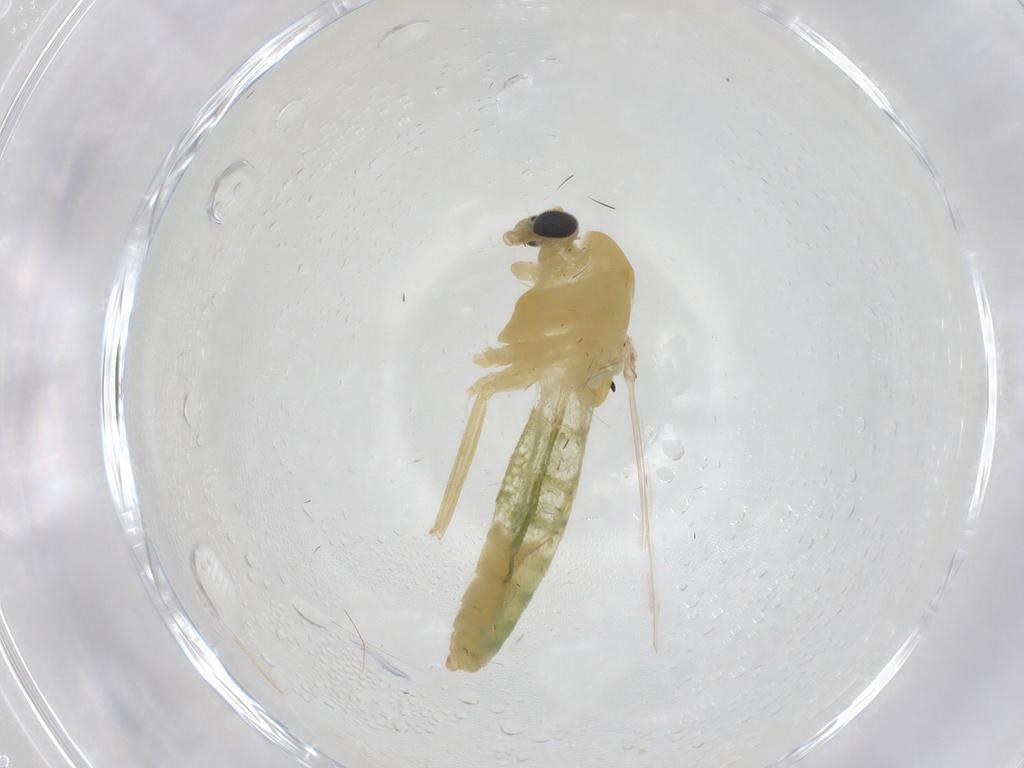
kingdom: Animalia
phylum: Arthropoda
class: Insecta
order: Diptera
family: Chironomidae
